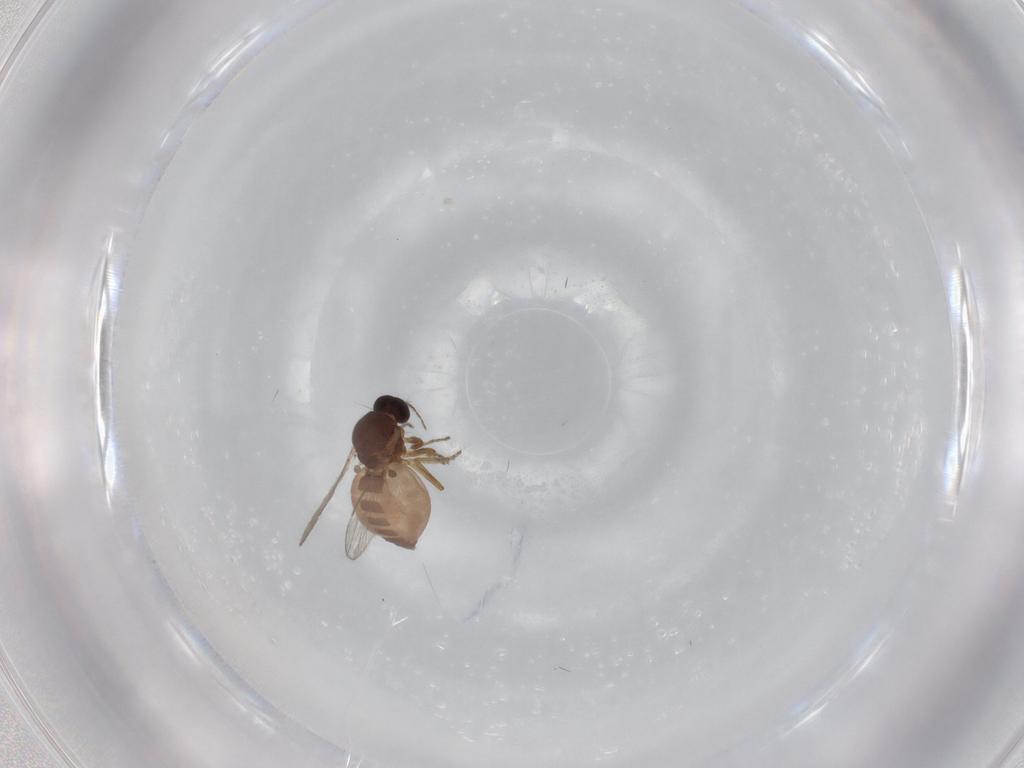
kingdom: Animalia
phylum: Arthropoda
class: Insecta
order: Diptera
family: Ceratopogonidae
